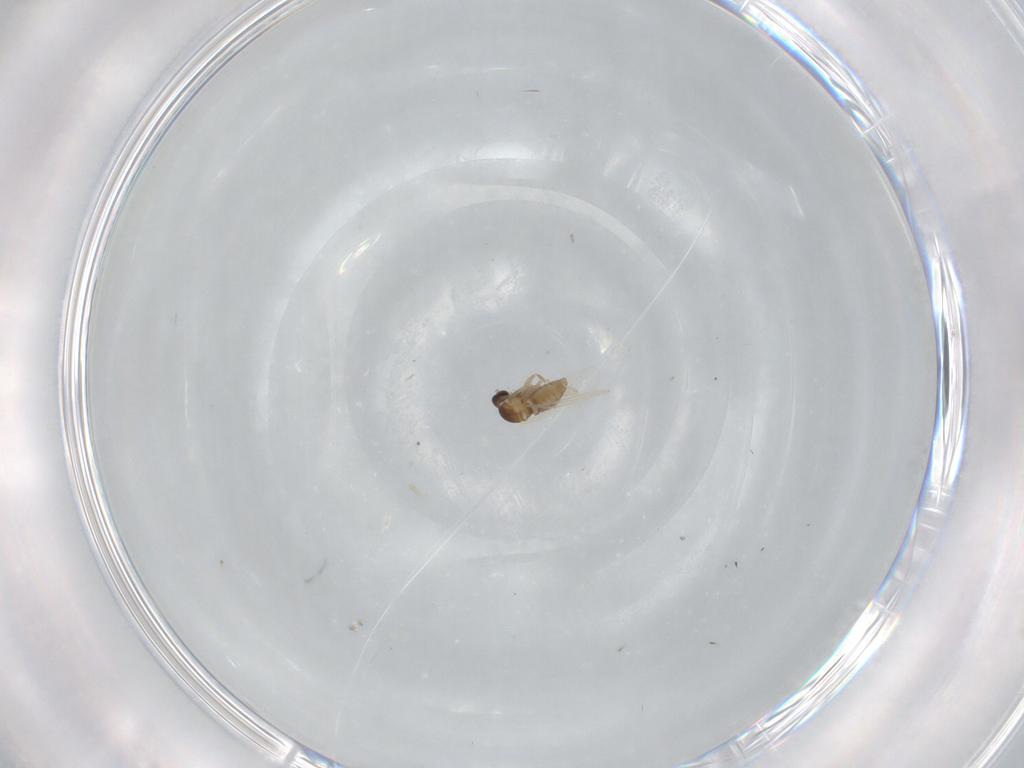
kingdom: Animalia
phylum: Arthropoda
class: Insecta
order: Diptera
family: Cecidomyiidae
